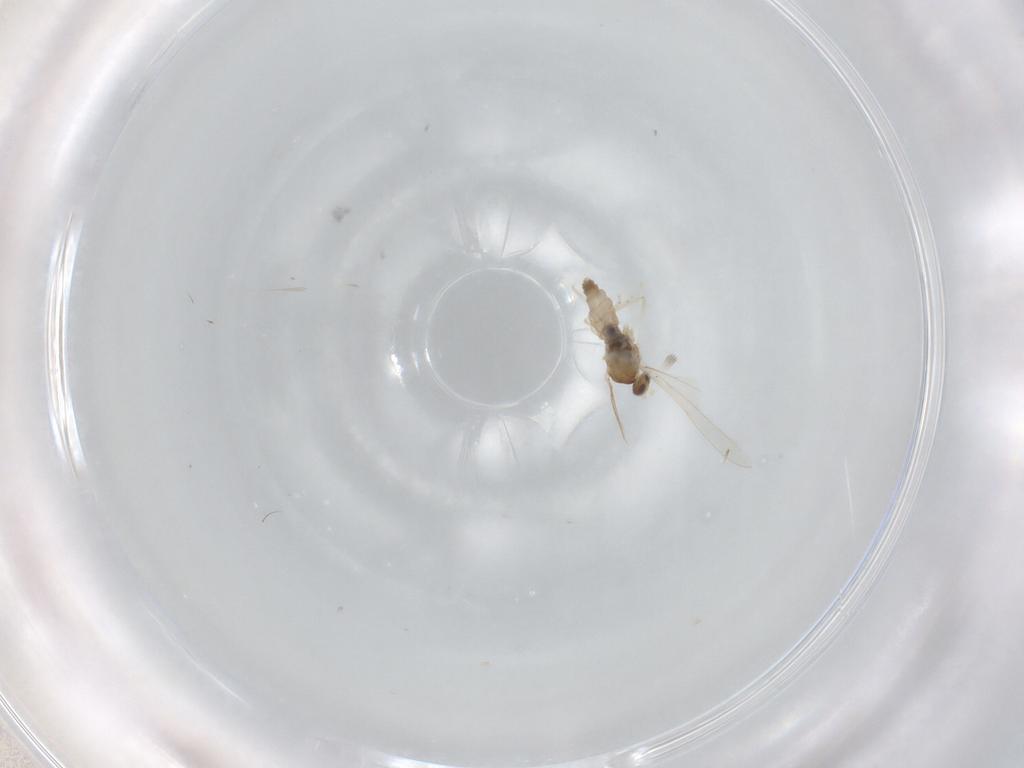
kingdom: Animalia
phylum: Arthropoda
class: Insecta
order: Diptera
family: Cecidomyiidae
